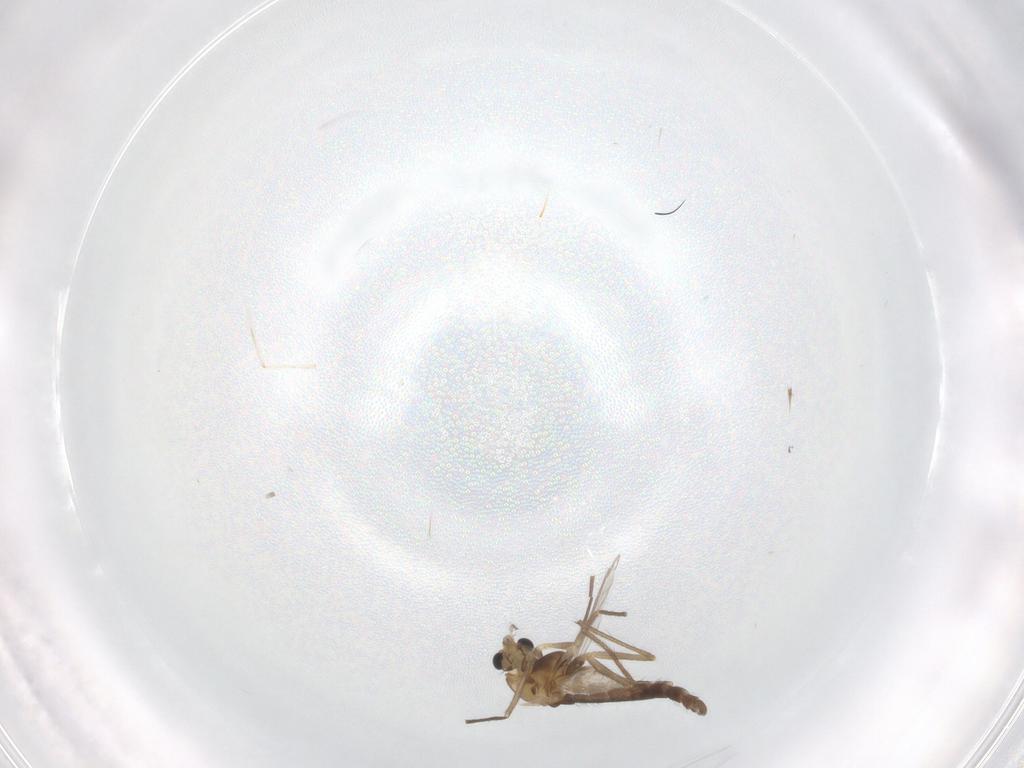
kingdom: Animalia
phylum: Arthropoda
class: Insecta
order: Diptera
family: Chironomidae
